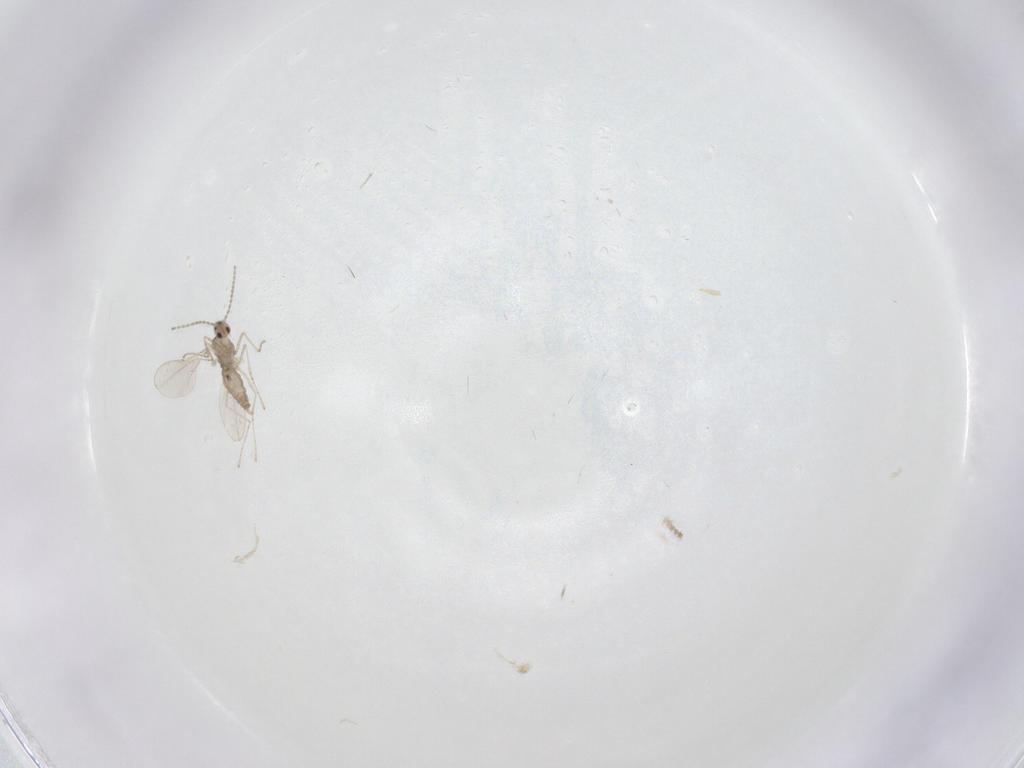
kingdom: Animalia
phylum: Arthropoda
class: Insecta
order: Diptera
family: Cecidomyiidae
